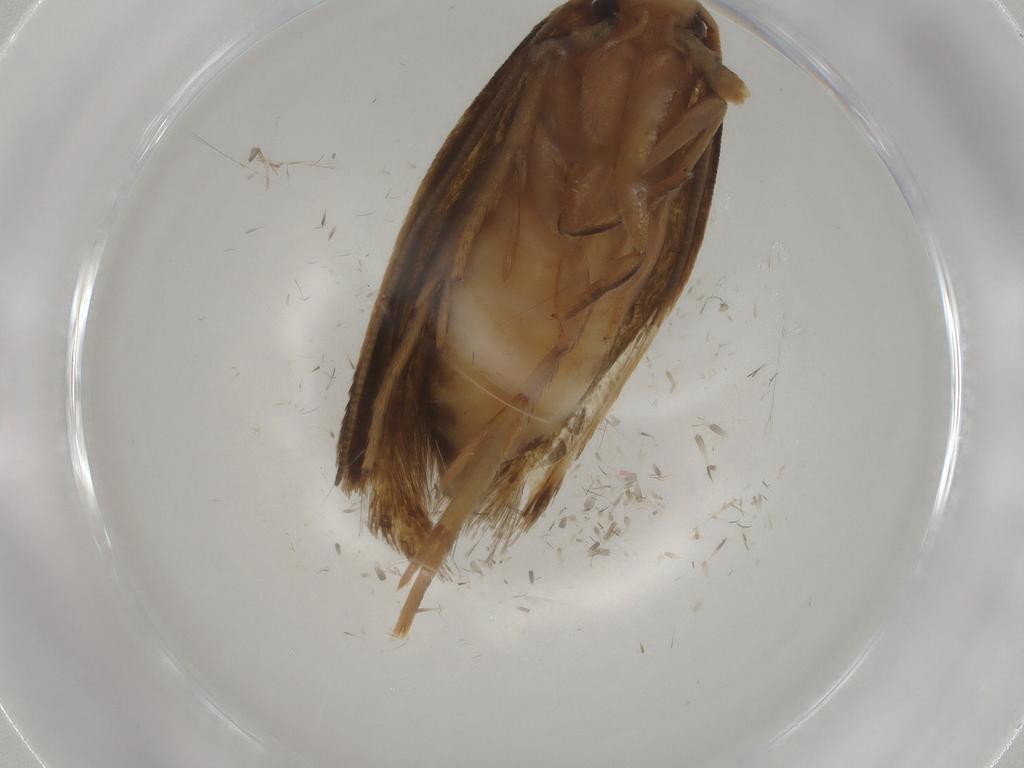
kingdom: Animalia
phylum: Arthropoda
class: Insecta
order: Lepidoptera
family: Tineidae
